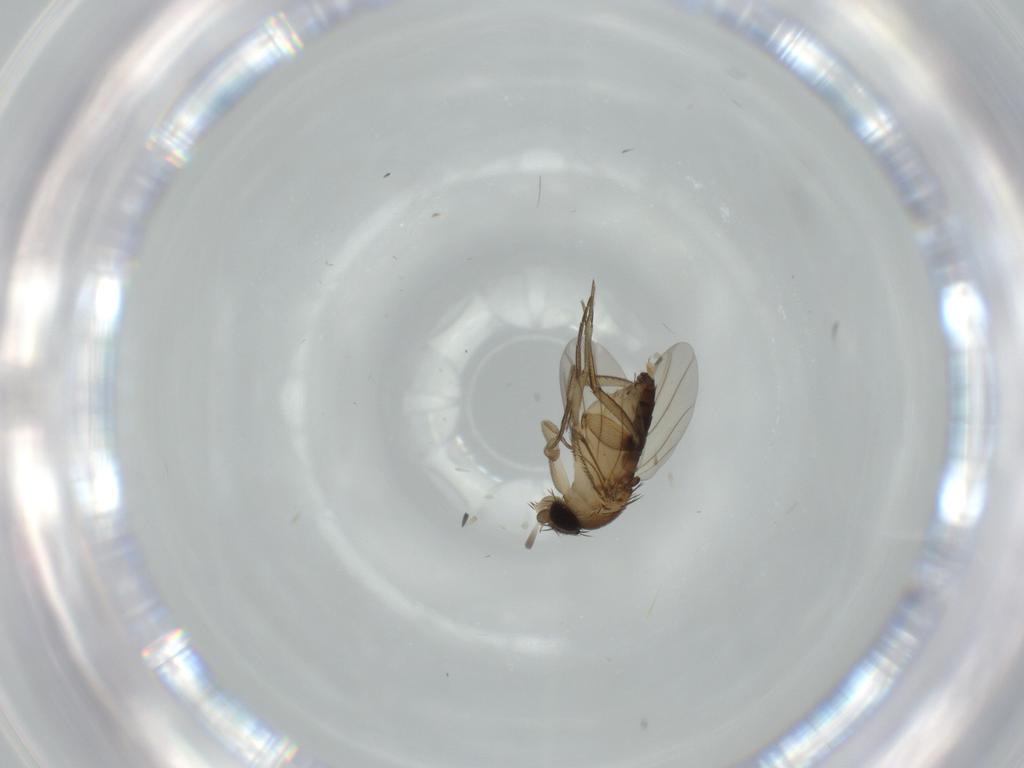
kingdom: Animalia
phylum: Arthropoda
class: Insecta
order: Diptera
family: Phoridae
